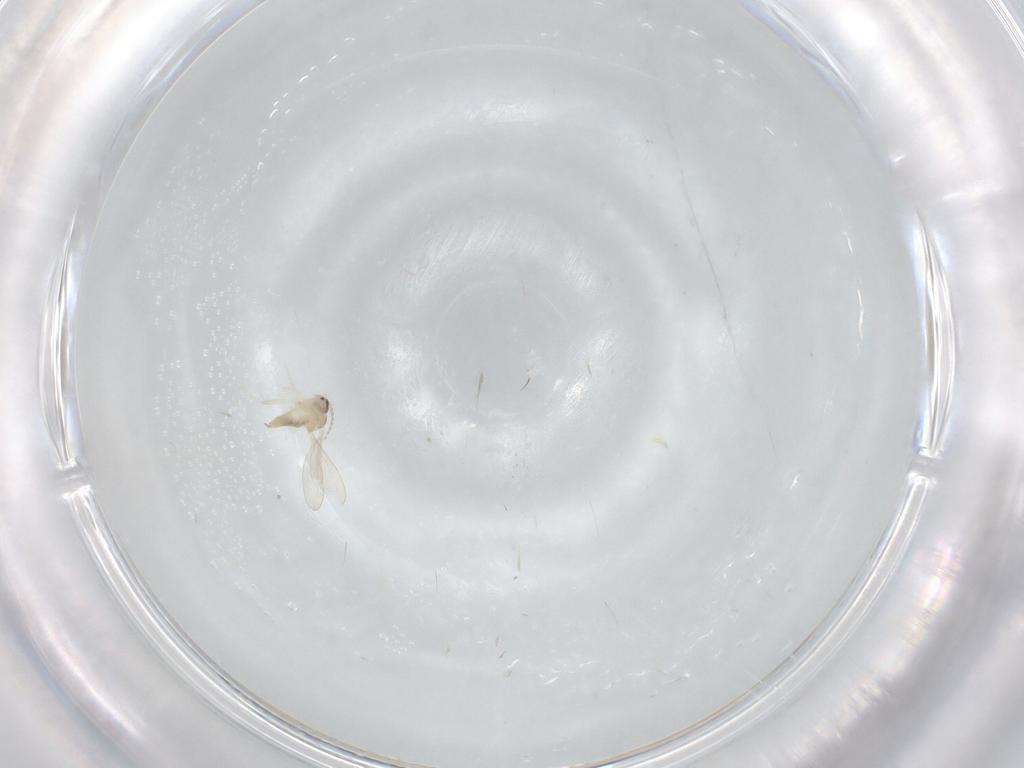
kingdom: Animalia
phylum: Arthropoda
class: Insecta
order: Diptera
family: Cecidomyiidae
